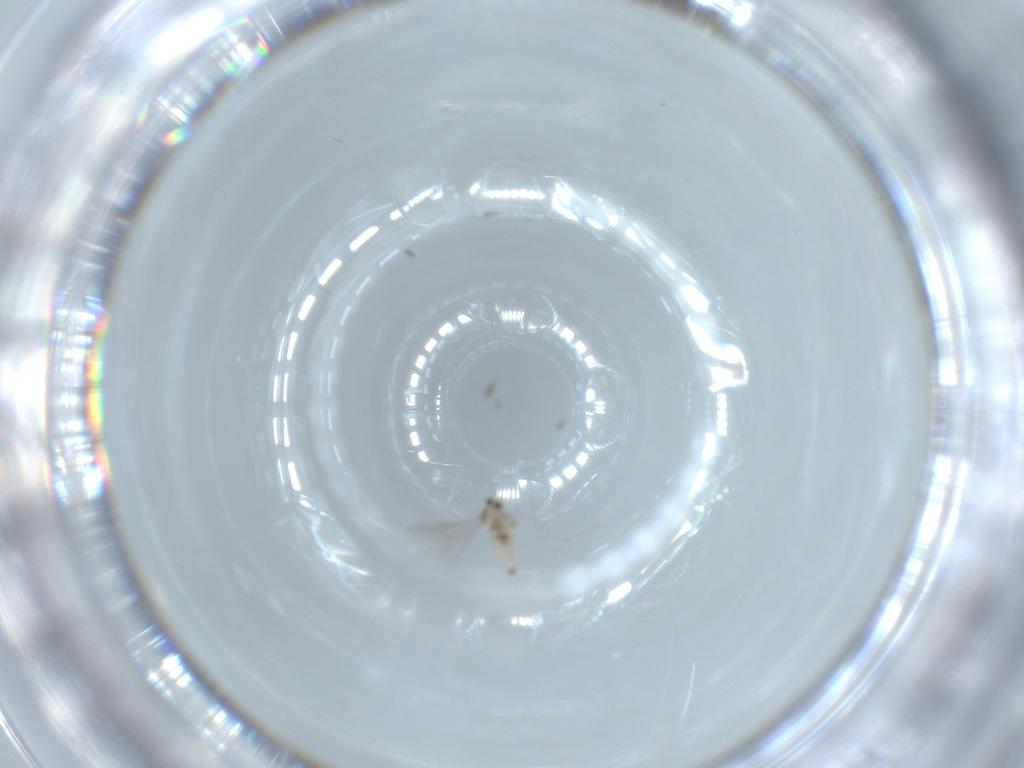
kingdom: Animalia
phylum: Arthropoda
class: Insecta
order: Diptera
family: Cecidomyiidae
